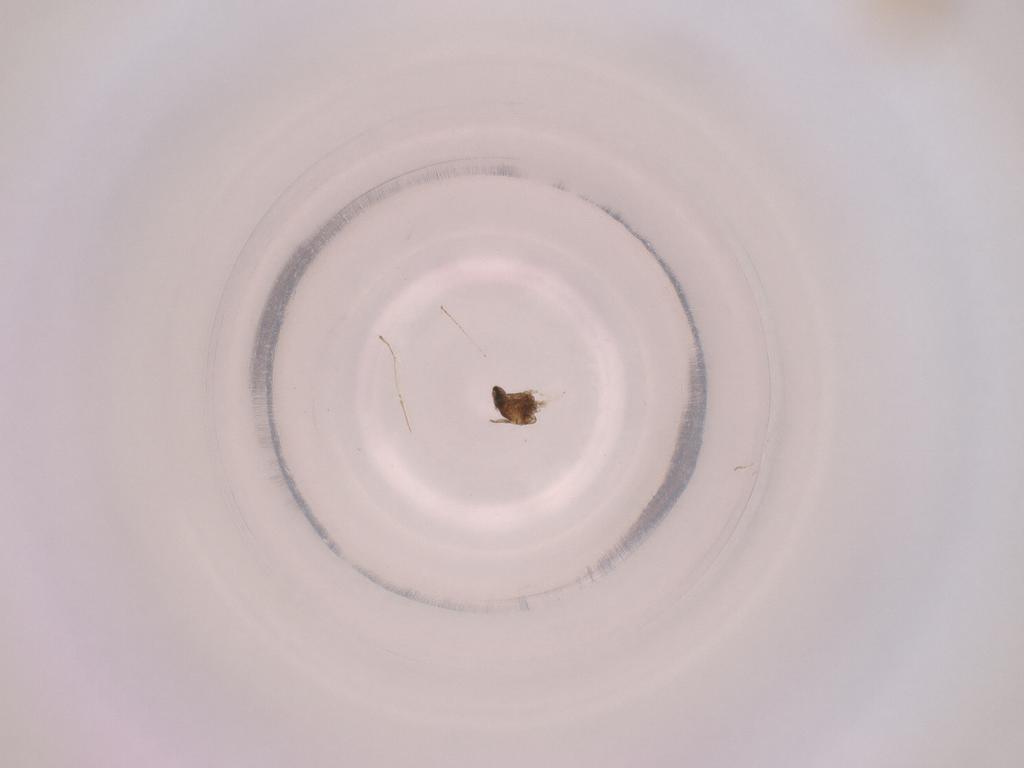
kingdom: Animalia
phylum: Arthropoda
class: Insecta
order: Diptera
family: Cecidomyiidae
